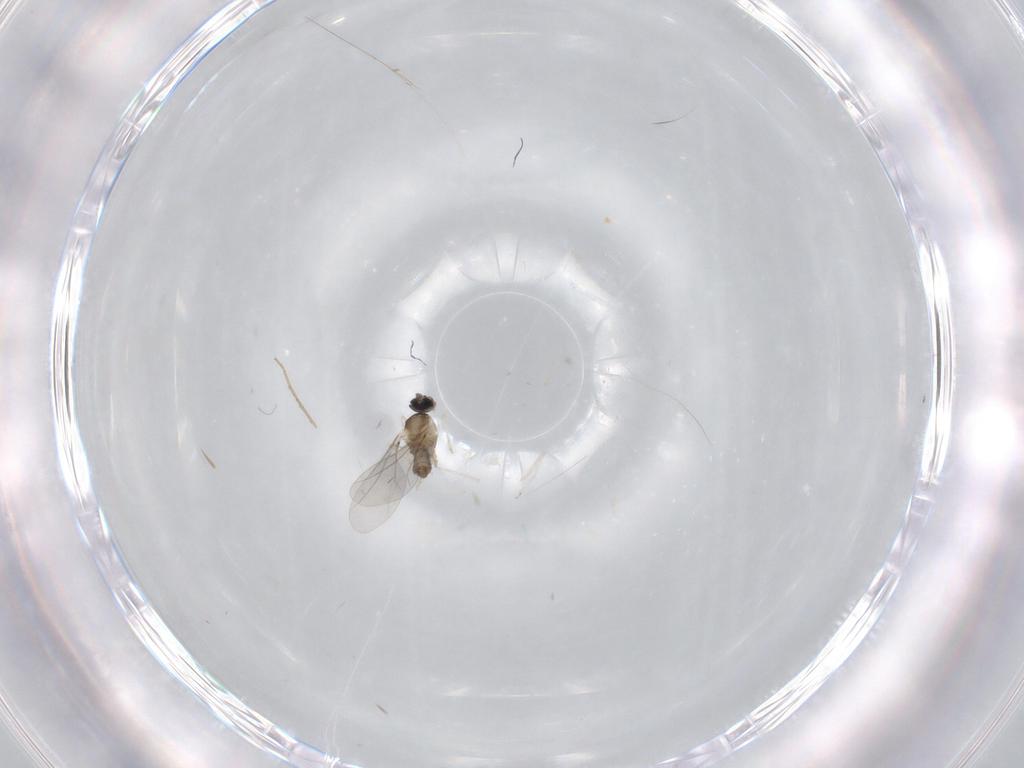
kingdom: Animalia
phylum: Arthropoda
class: Insecta
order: Diptera
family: Cecidomyiidae
